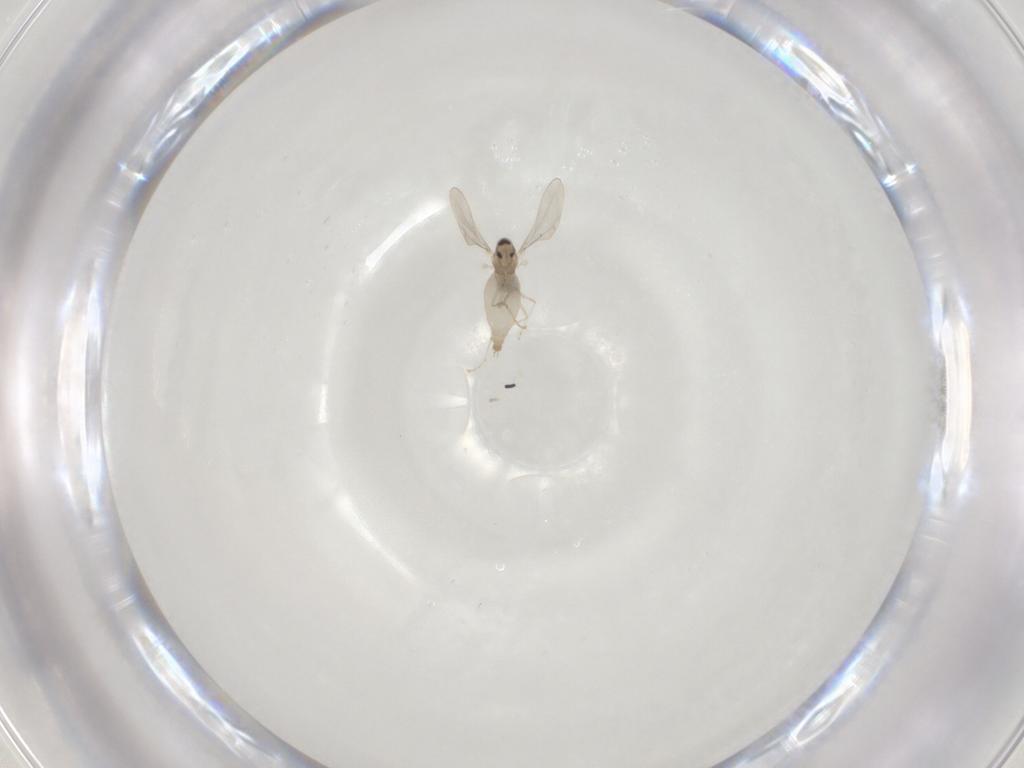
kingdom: Animalia
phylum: Arthropoda
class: Insecta
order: Diptera
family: Cecidomyiidae
